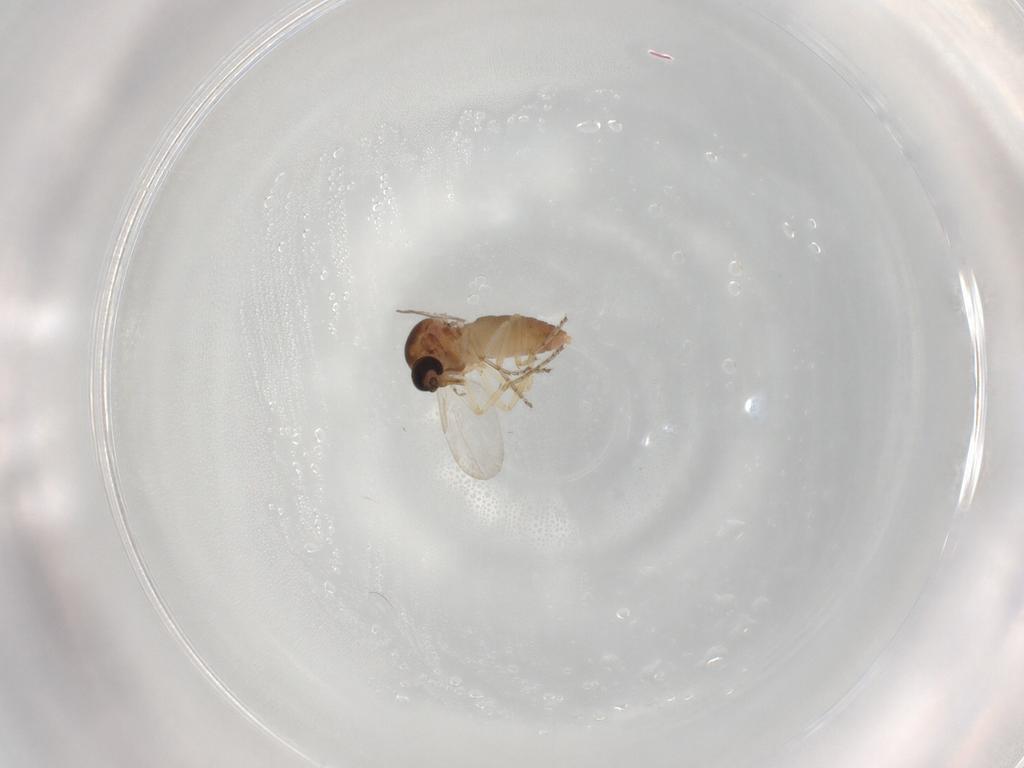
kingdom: Animalia
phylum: Arthropoda
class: Insecta
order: Diptera
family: Ceratopogonidae
